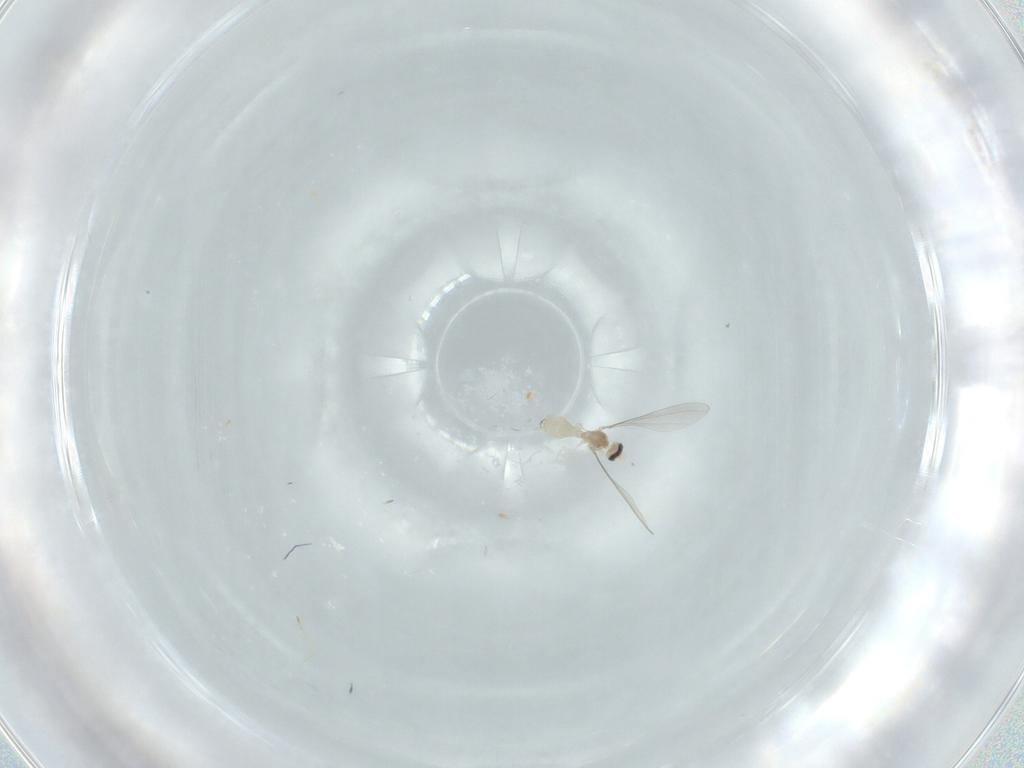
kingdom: Animalia
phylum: Arthropoda
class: Insecta
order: Diptera
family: Cecidomyiidae
